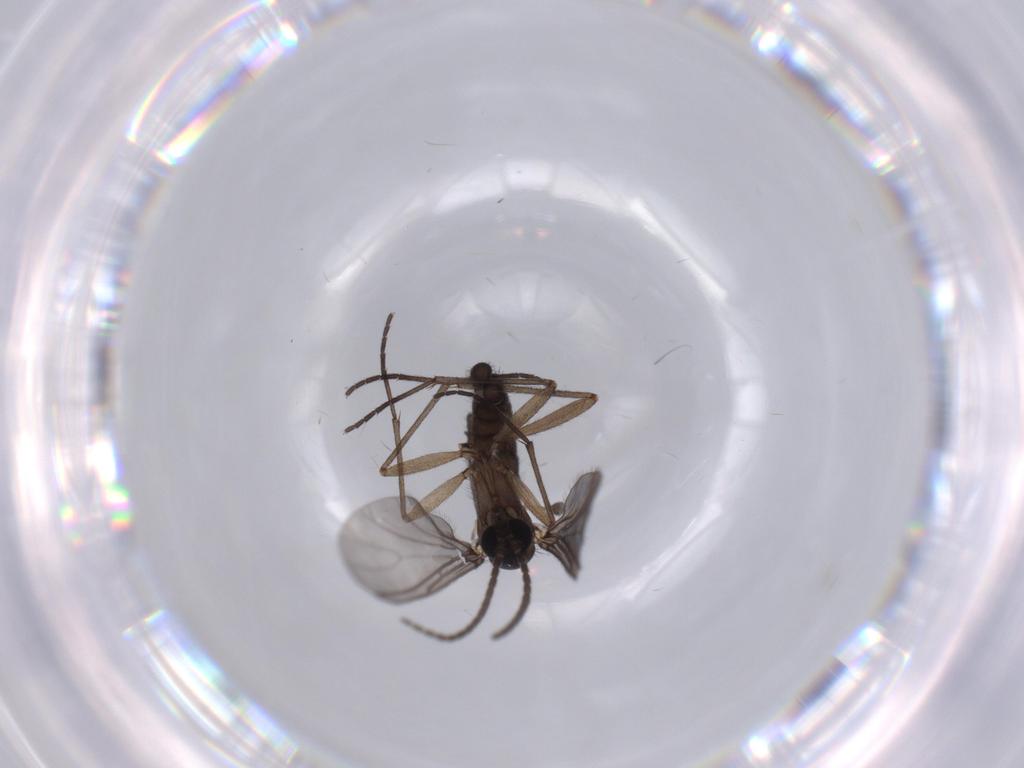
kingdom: Animalia
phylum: Arthropoda
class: Insecta
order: Diptera
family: Sciaridae
